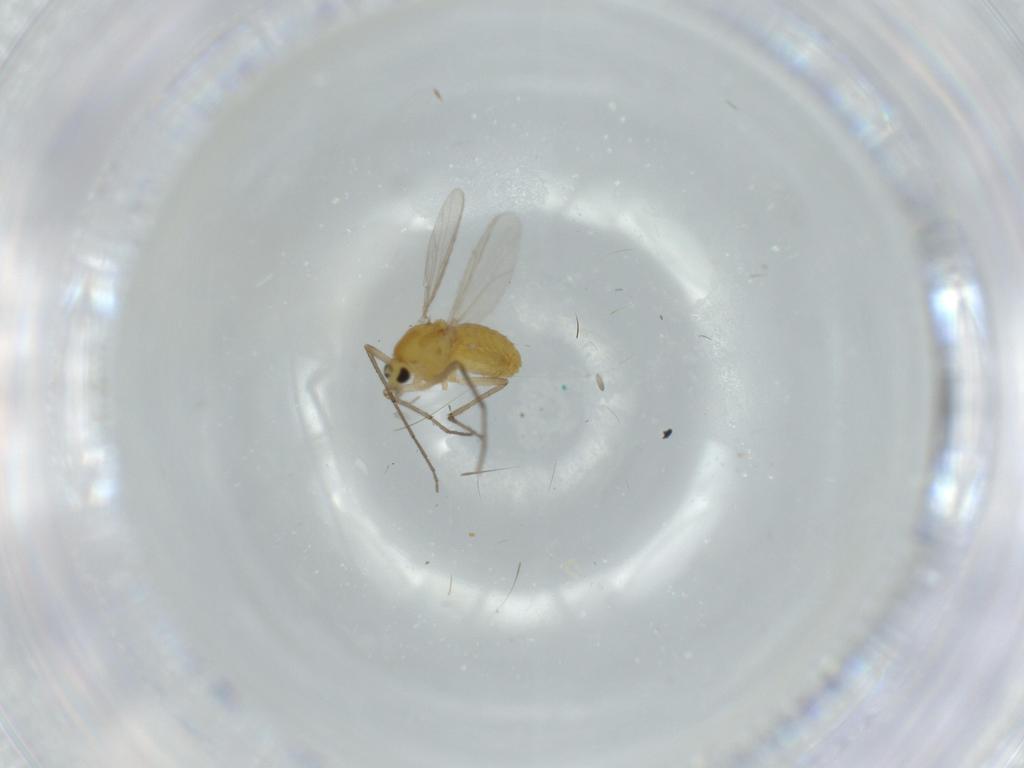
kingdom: Animalia
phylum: Arthropoda
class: Insecta
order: Diptera
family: Chironomidae
